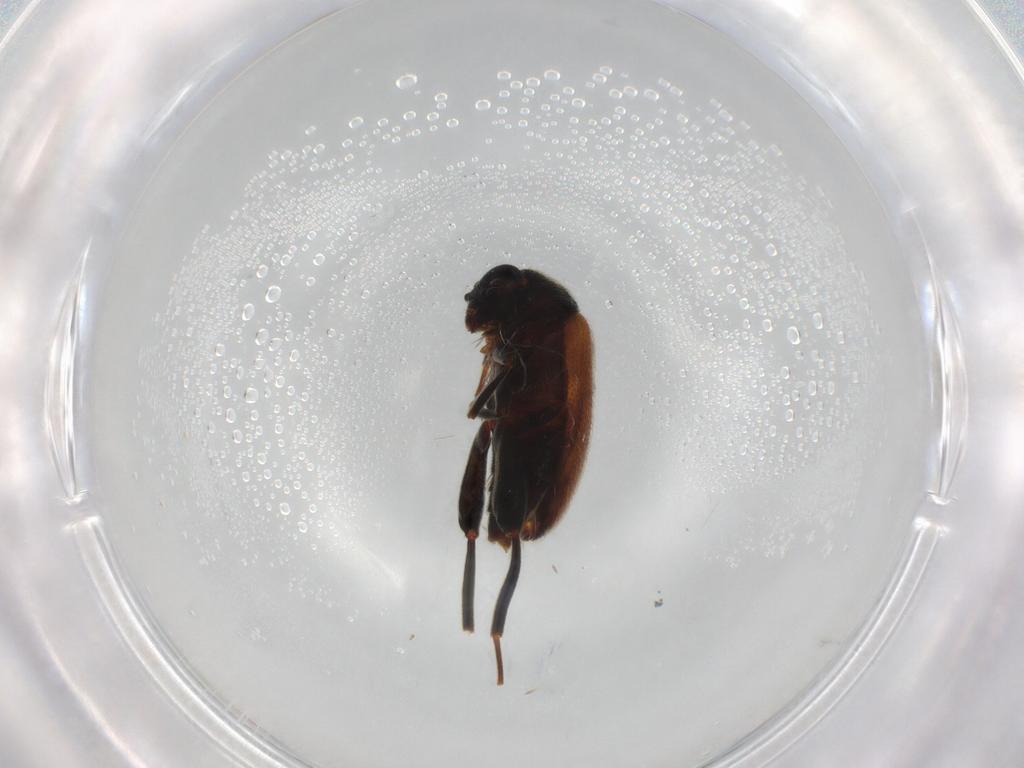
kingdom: Animalia
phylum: Arthropoda
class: Insecta
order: Coleoptera
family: Aderidae
